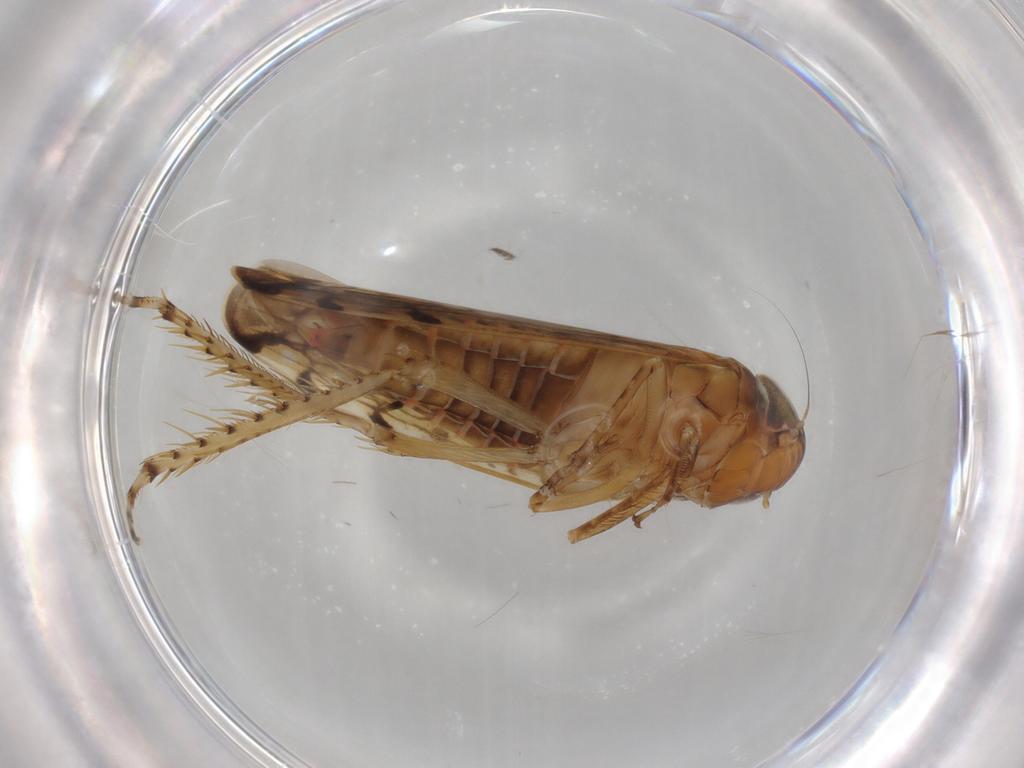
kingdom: Animalia
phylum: Arthropoda
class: Insecta
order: Hemiptera
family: Cicadellidae
